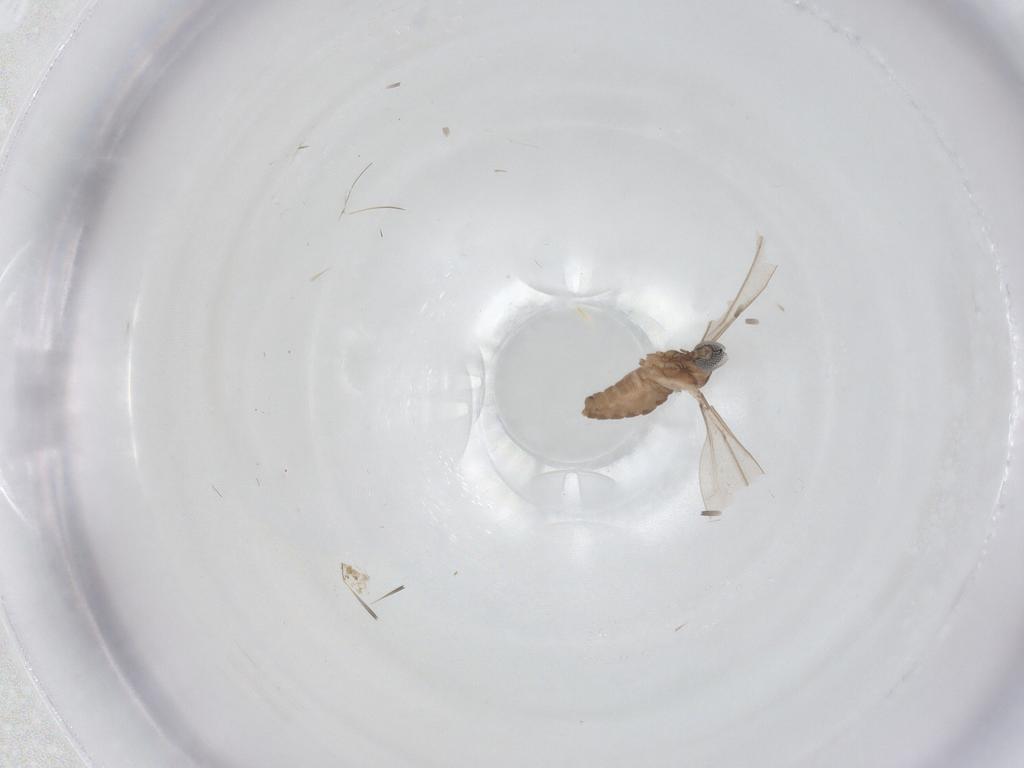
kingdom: Animalia
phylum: Arthropoda
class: Insecta
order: Diptera
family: Cecidomyiidae
